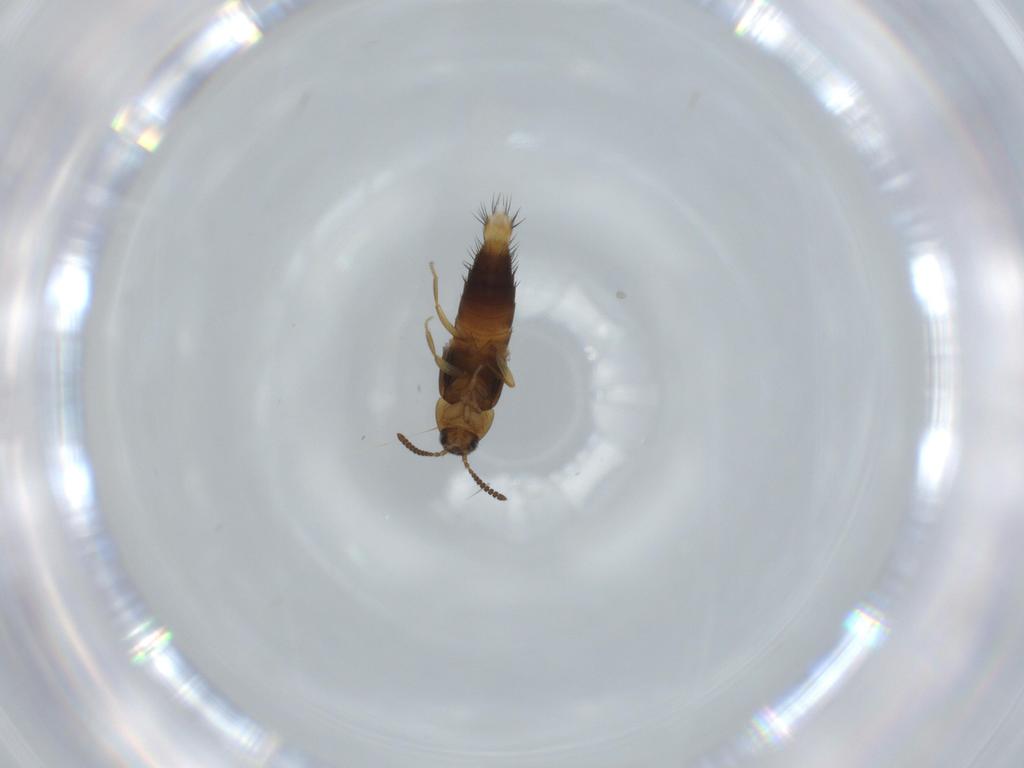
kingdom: Animalia
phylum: Arthropoda
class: Insecta
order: Coleoptera
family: Staphylinidae
